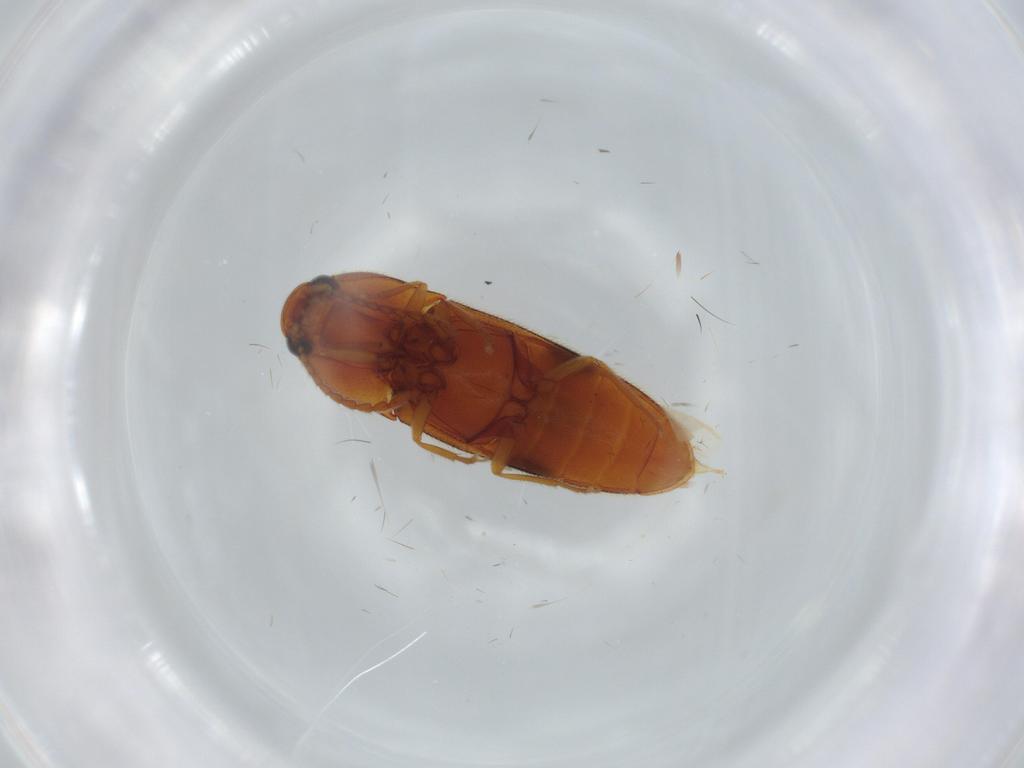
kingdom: Animalia
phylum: Arthropoda
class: Insecta
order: Coleoptera
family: Elateridae
